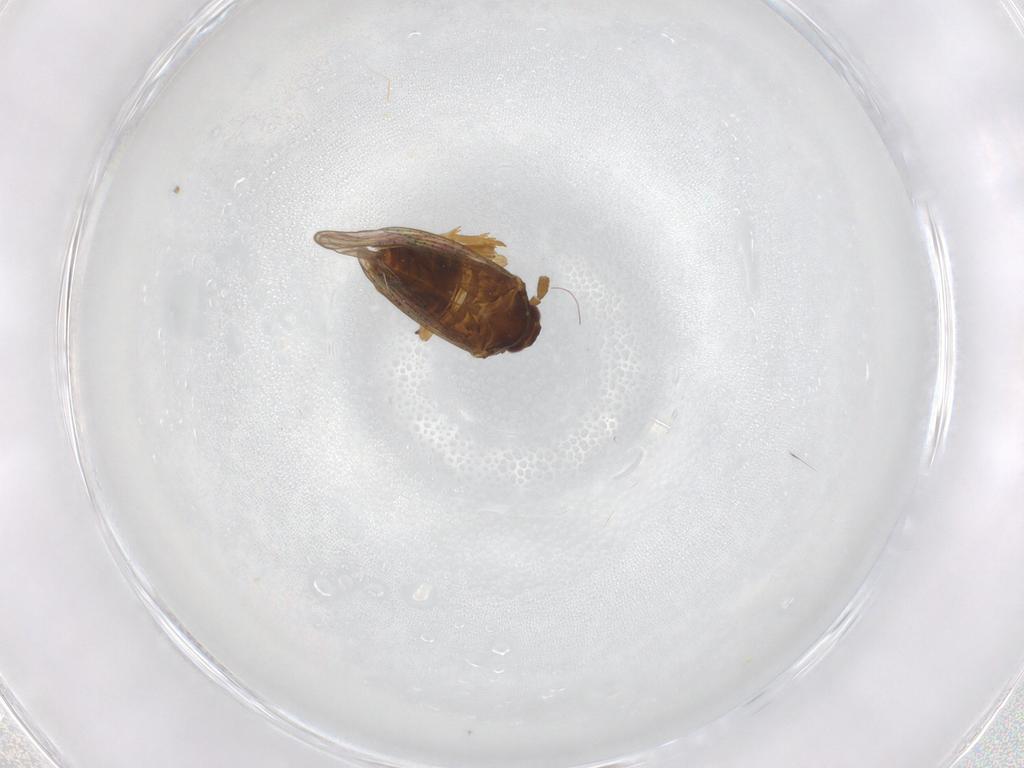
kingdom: Animalia
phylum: Arthropoda
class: Insecta
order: Hemiptera
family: Delphacidae
